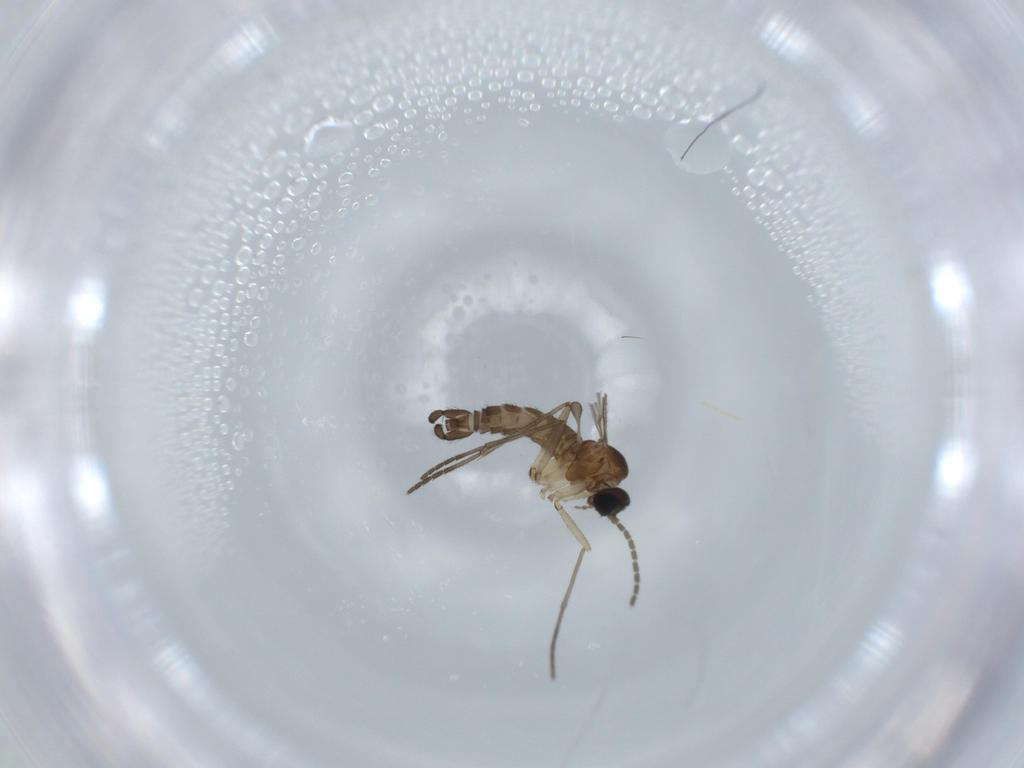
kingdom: Animalia
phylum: Arthropoda
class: Insecta
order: Diptera
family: Sciaridae
